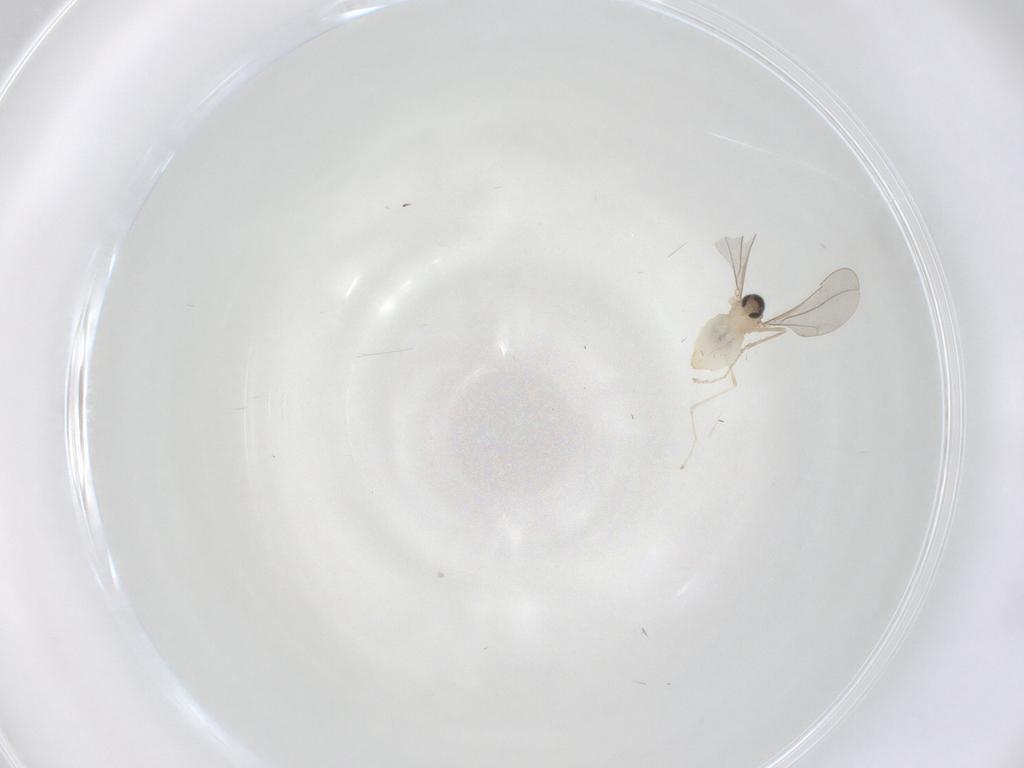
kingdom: Animalia
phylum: Arthropoda
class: Insecta
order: Diptera
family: Cecidomyiidae
